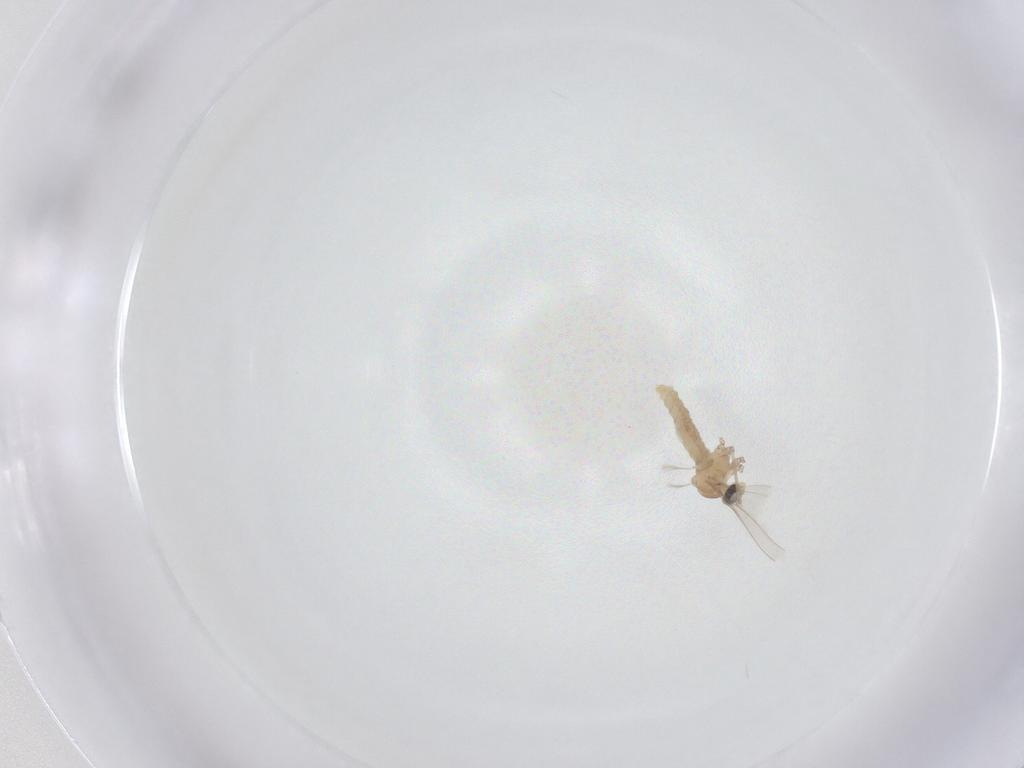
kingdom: Animalia
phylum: Arthropoda
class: Insecta
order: Diptera
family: Cecidomyiidae
